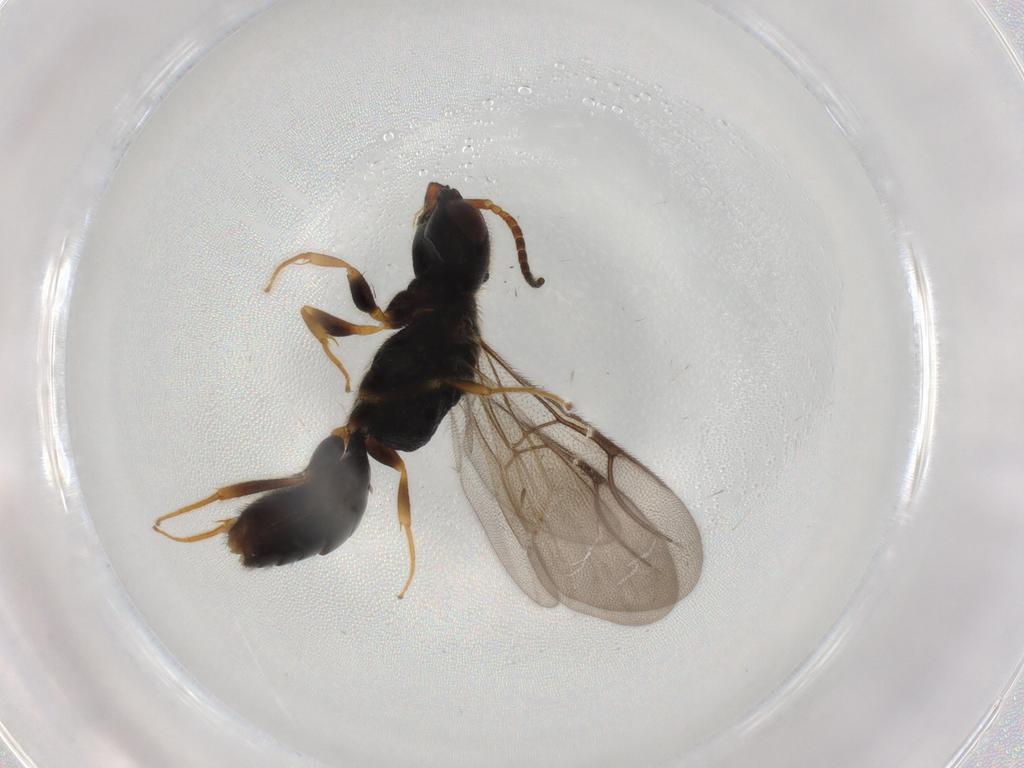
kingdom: Animalia
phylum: Arthropoda
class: Insecta
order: Hymenoptera
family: Bethylidae
